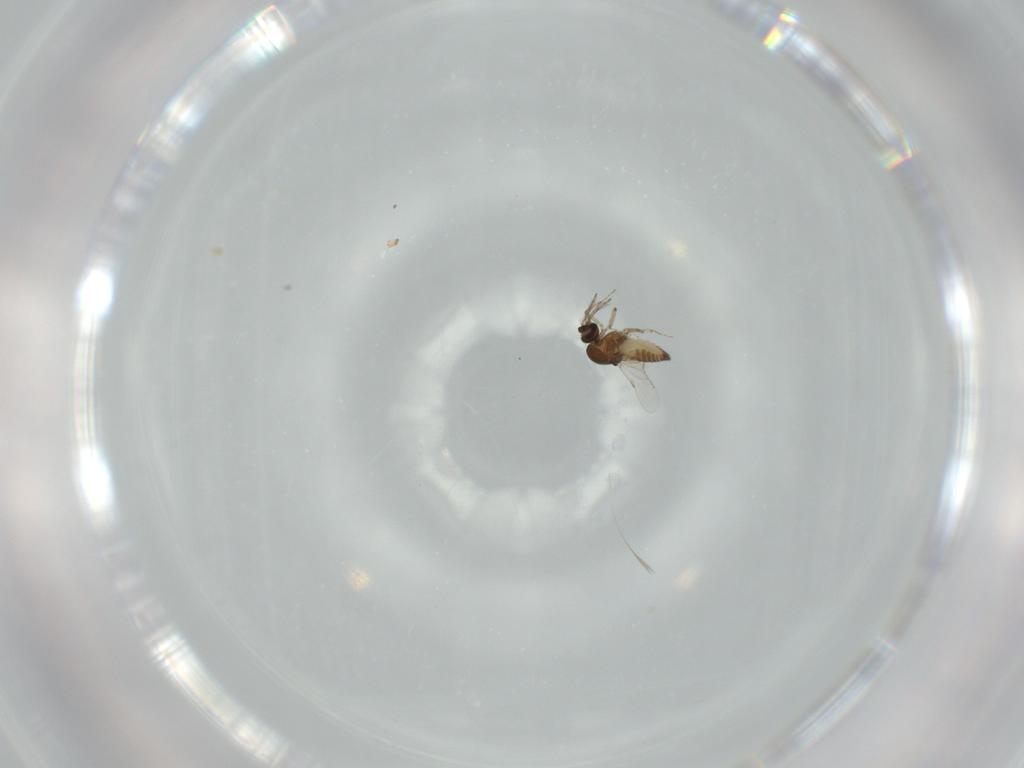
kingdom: Animalia
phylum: Arthropoda
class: Insecta
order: Diptera
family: Ceratopogonidae
